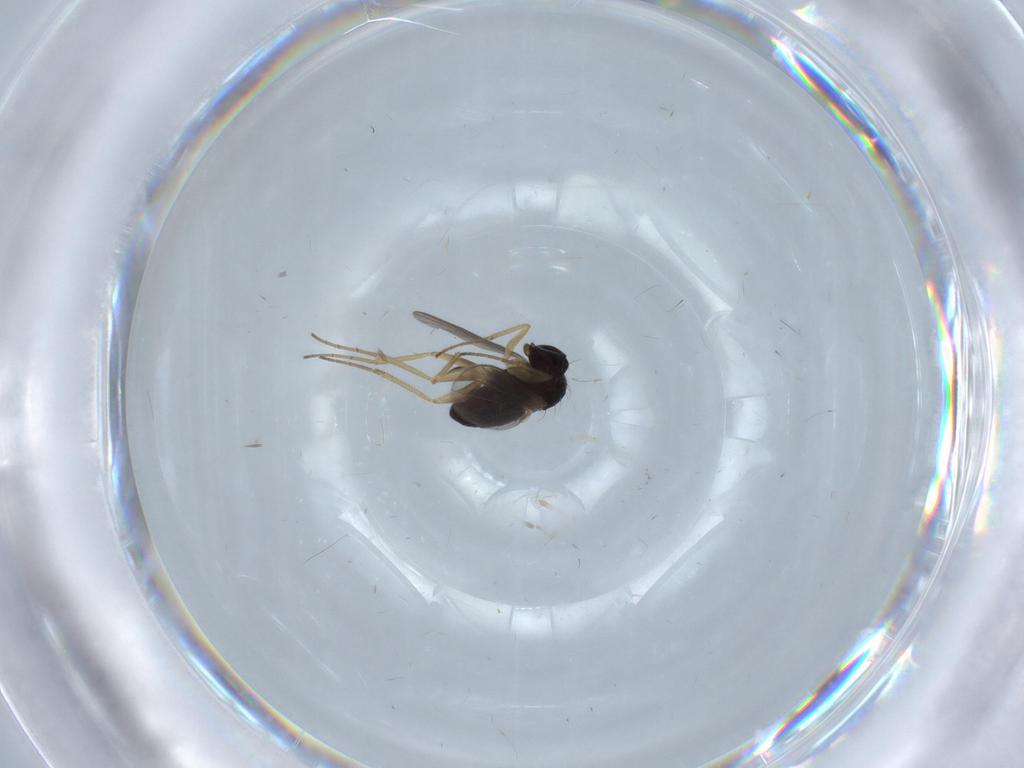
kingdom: Animalia
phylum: Arthropoda
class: Insecta
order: Diptera
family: Dolichopodidae
